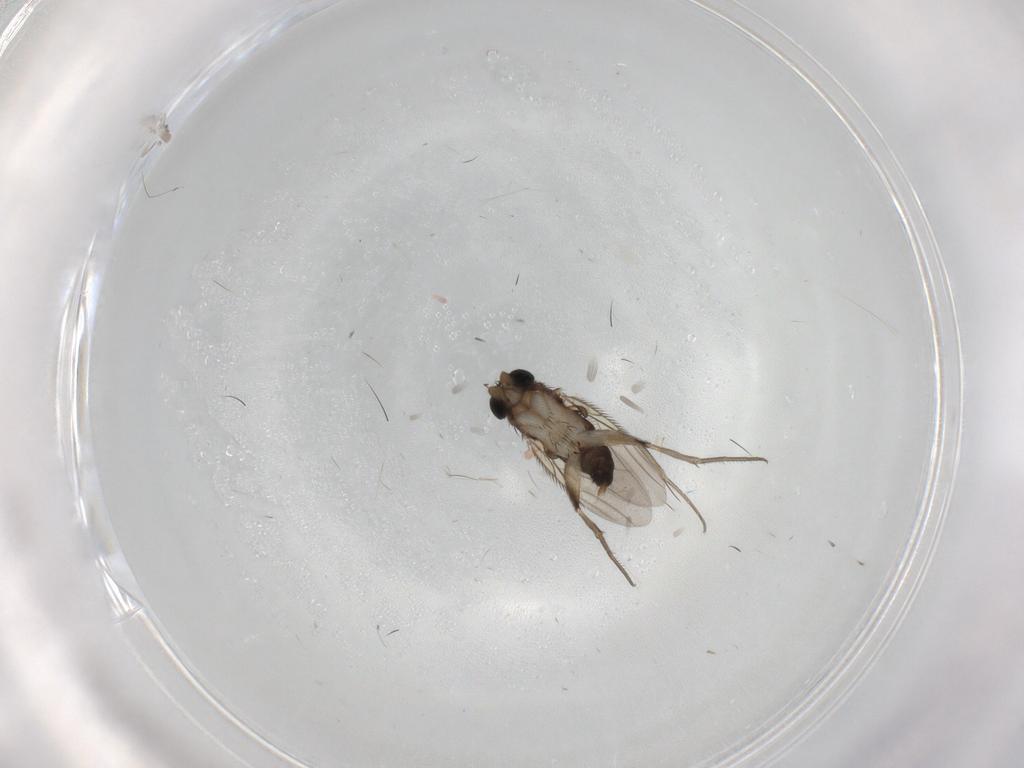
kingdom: Animalia
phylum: Arthropoda
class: Insecta
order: Diptera
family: Phoridae
